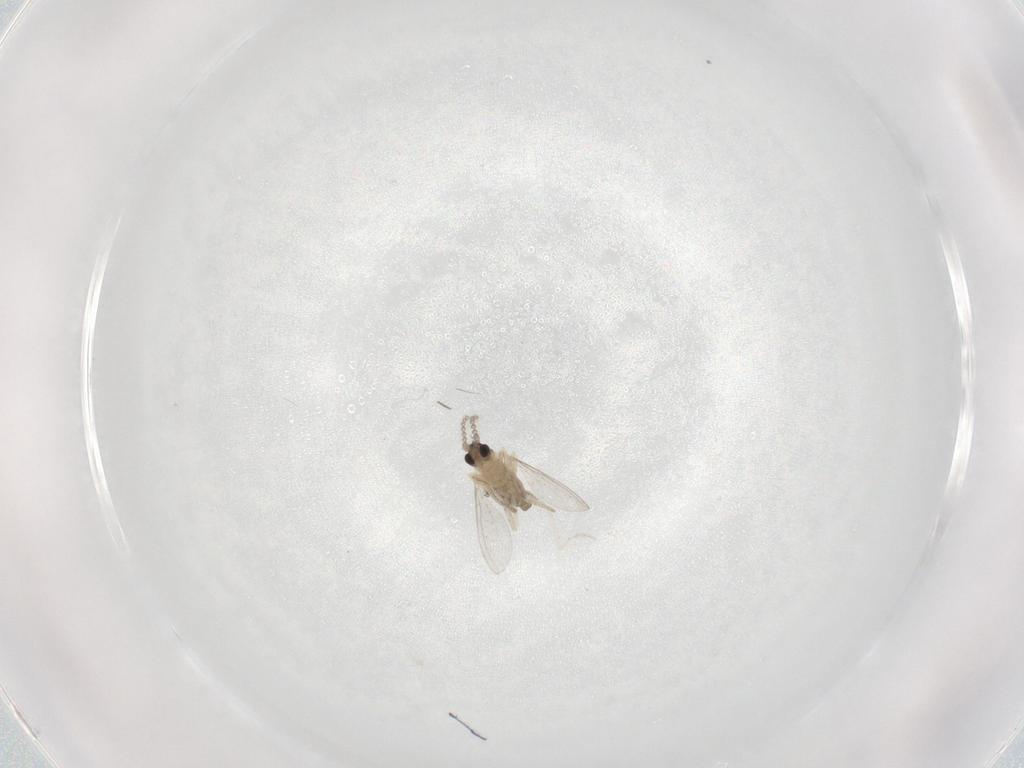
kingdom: Animalia
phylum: Arthropoda
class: Insecta
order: Diptera
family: Cecidomyiidae
